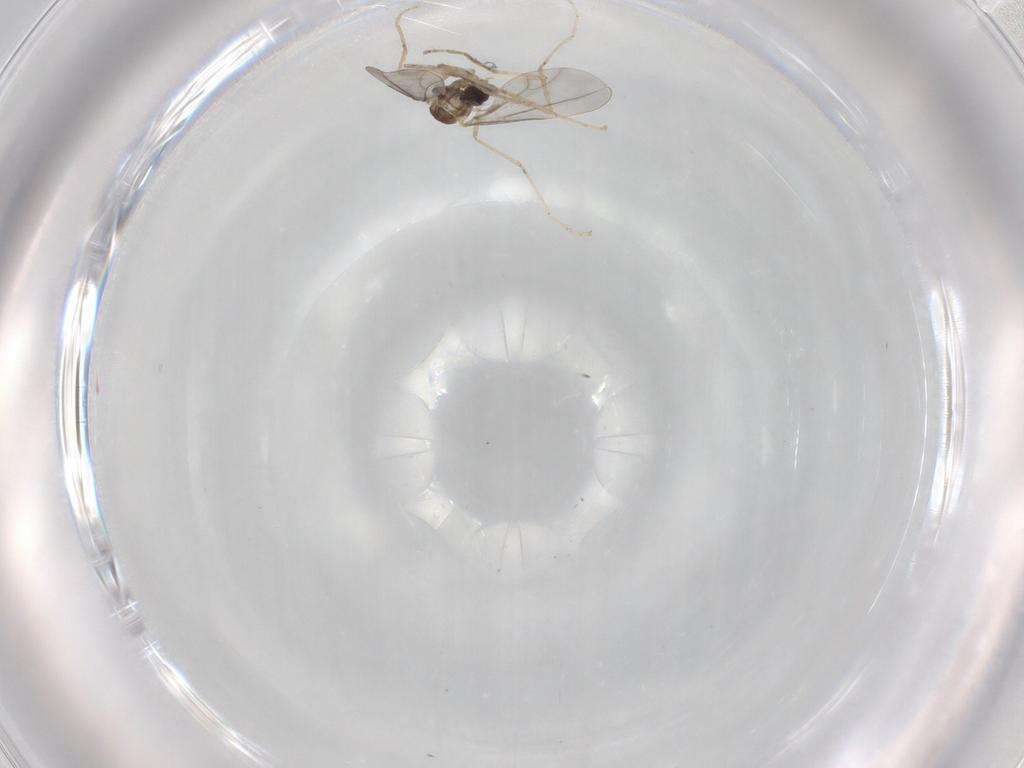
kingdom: Animalia
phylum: Arthropoda
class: Insecta
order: Diptera
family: Cecidomyiidae
